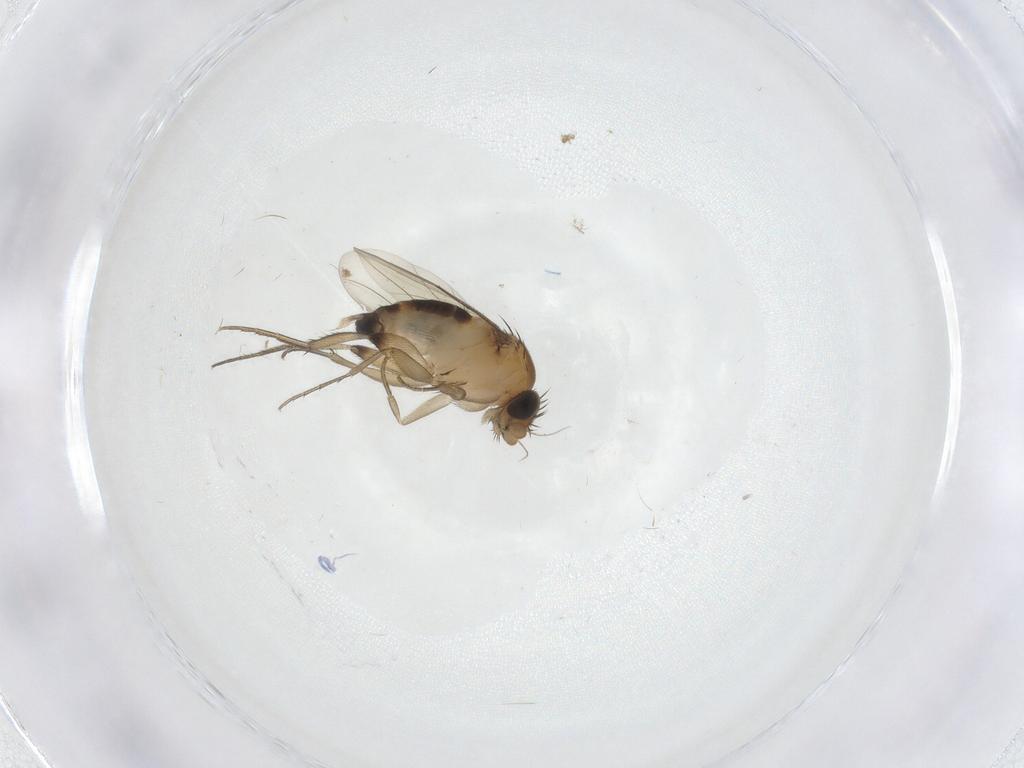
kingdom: Animalia
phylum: Arthropoda
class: Insecta
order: Diptera
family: Phoridae
